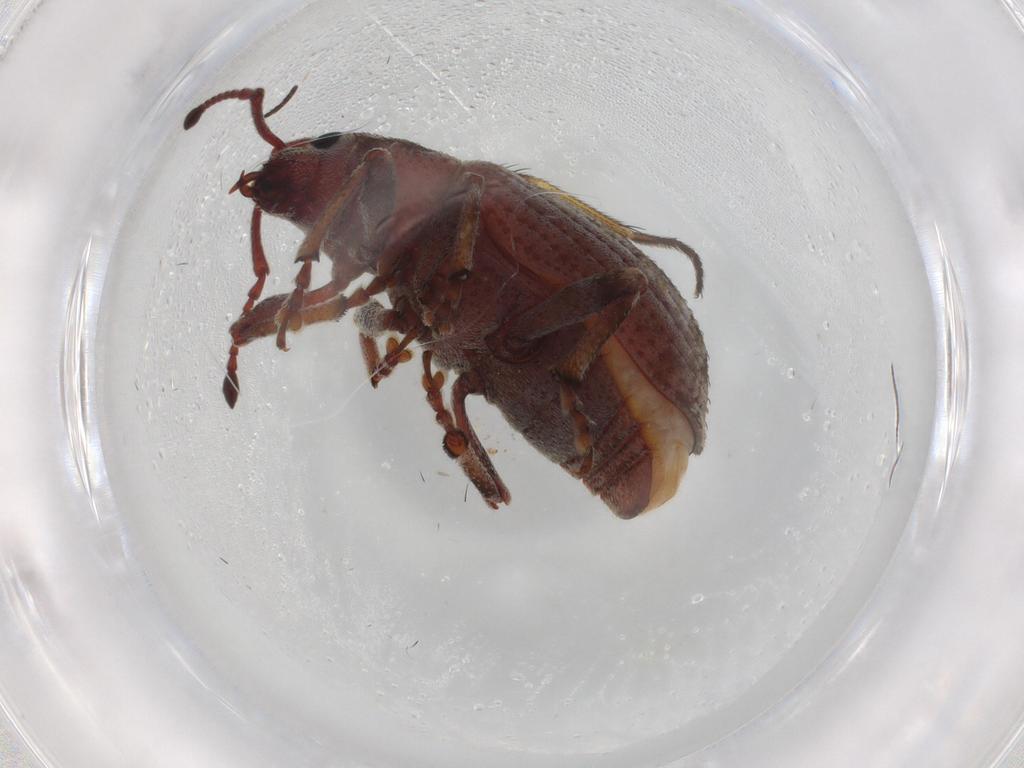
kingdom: Animalia
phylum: Arthropoda
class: Insecta
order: Coleoptera
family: Curculionidae
